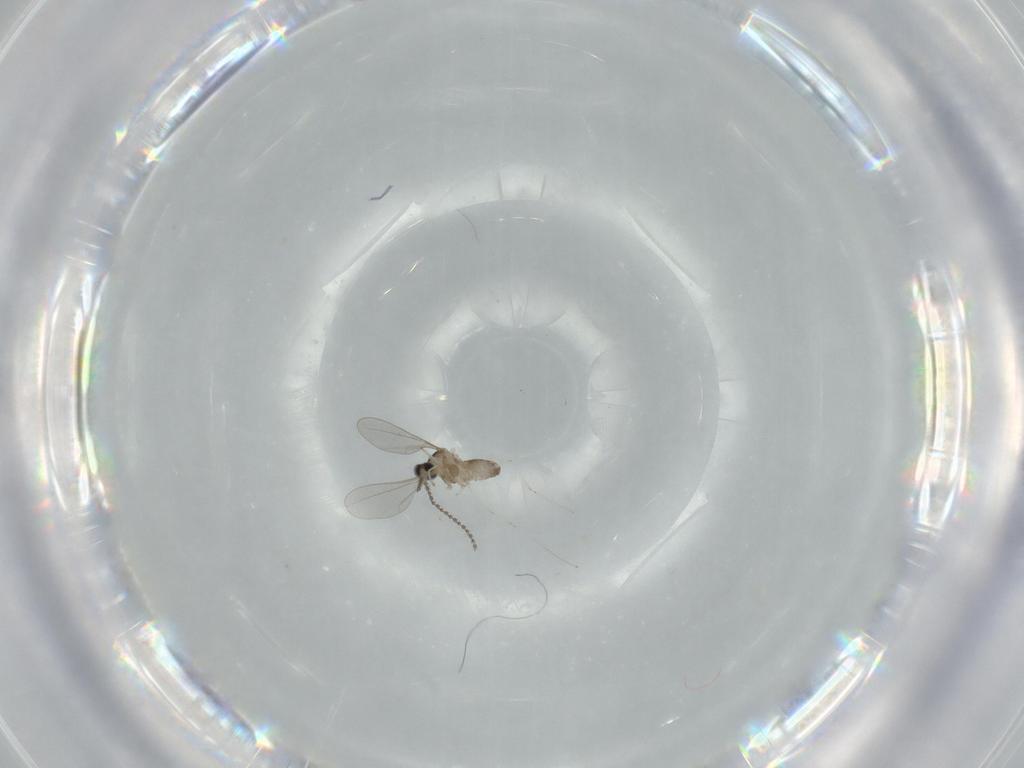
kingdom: Animalia
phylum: Arthropoda
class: Insecta
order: Diptera
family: Cecidomyiidae
